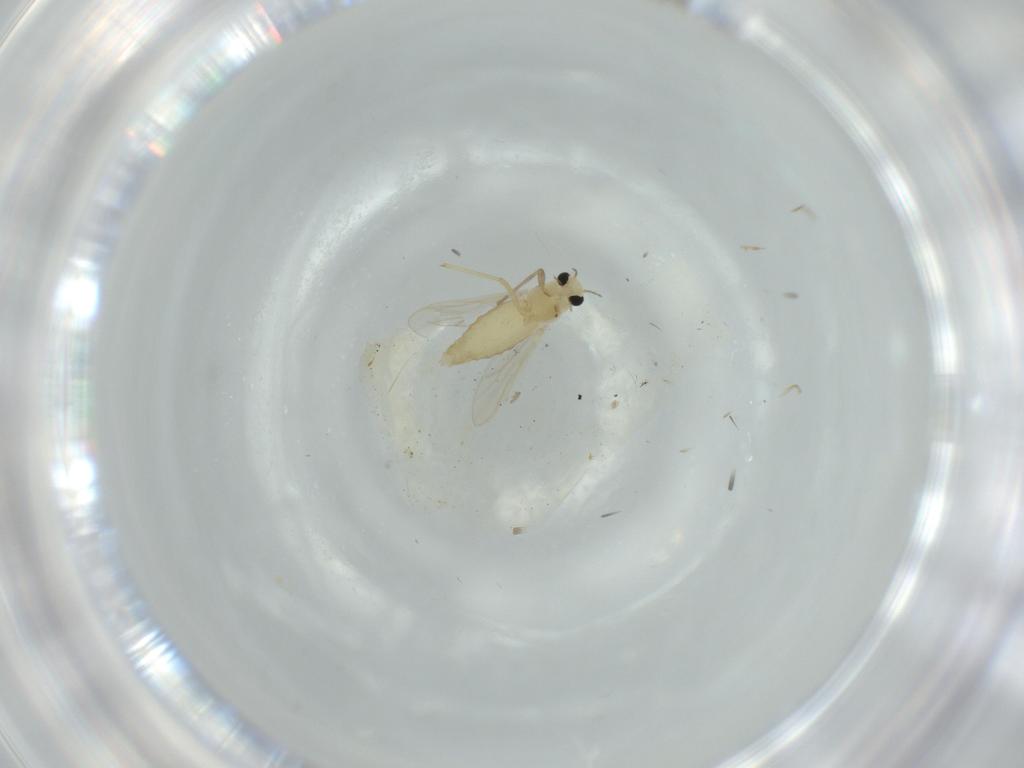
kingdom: Animalia
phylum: Arthropoda
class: Insecta
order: Diptera
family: Chironomidae
